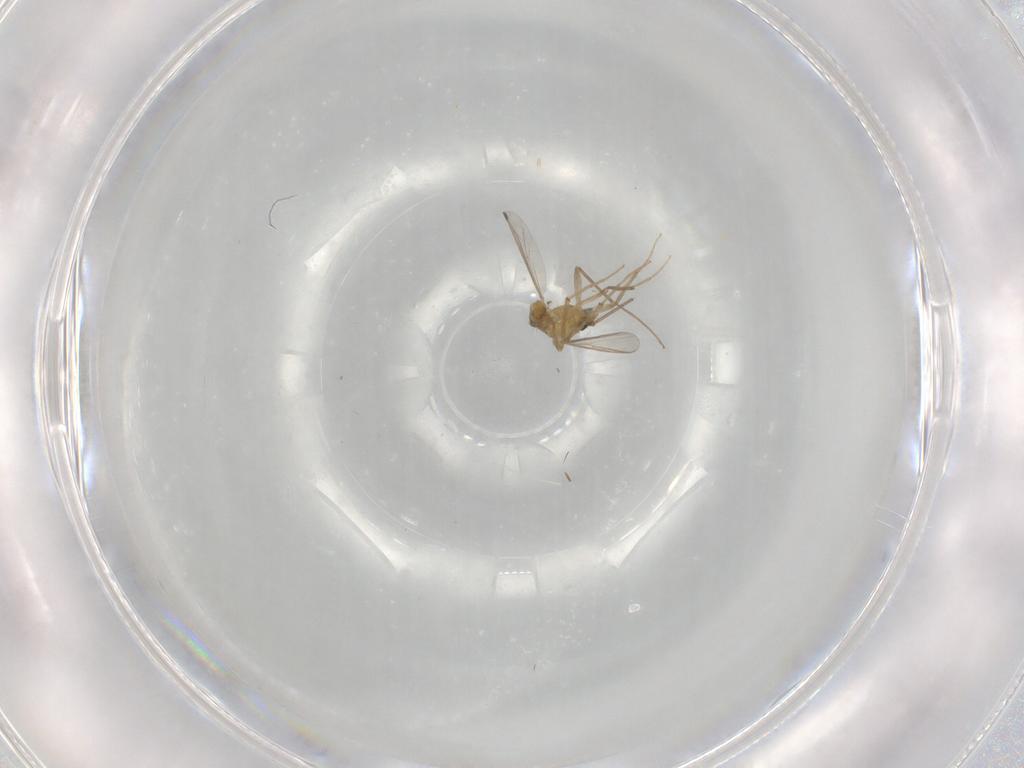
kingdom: Animalia
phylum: Arthropoda
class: Insecta
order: Diptera
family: Chironomidae
